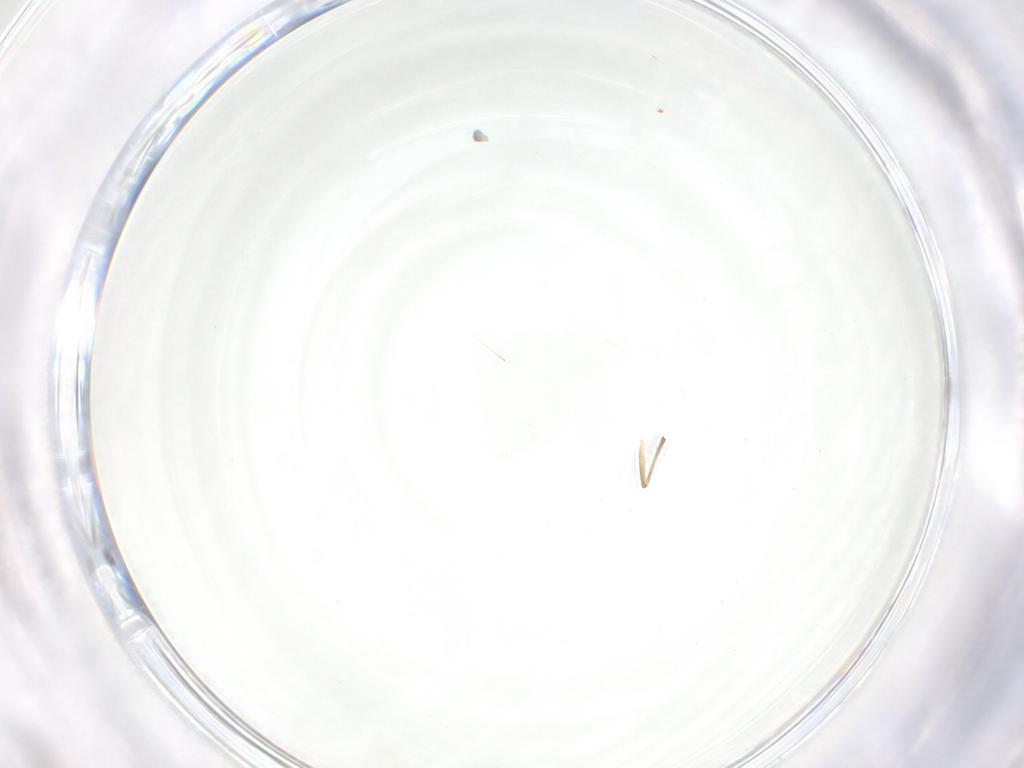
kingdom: Animalia
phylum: Arthropoda
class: Insecta
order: Diptera
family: Chironomidae
